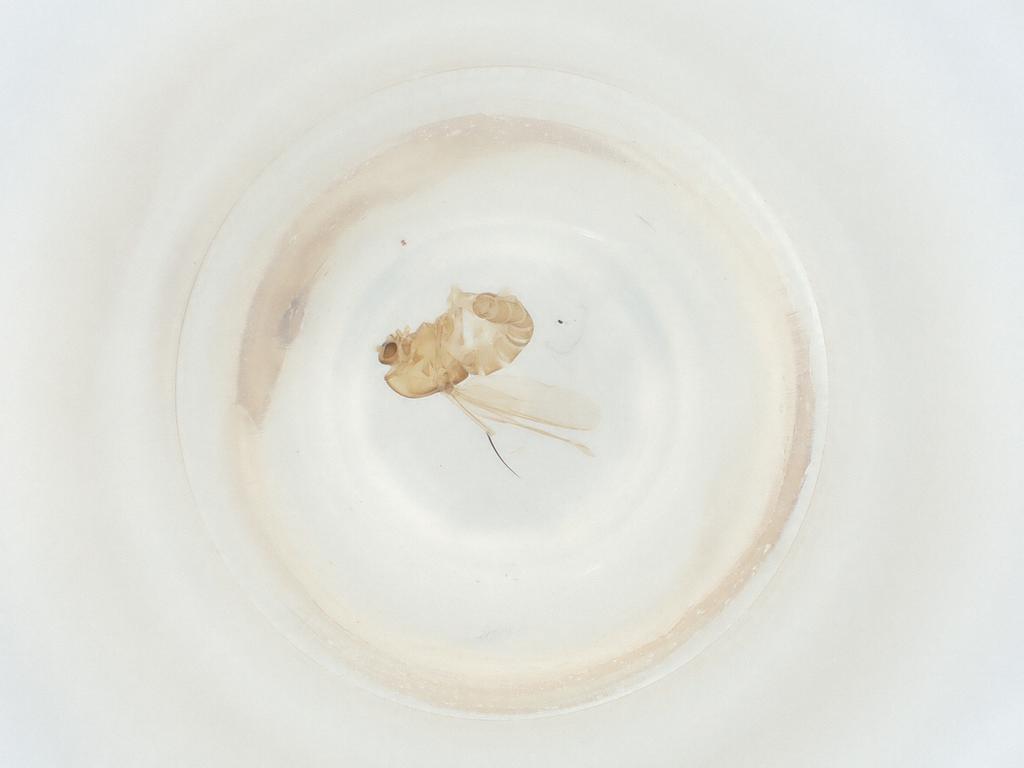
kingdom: Animalia
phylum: Arthropoda
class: Insecta
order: Diptera
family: Chironomidae
